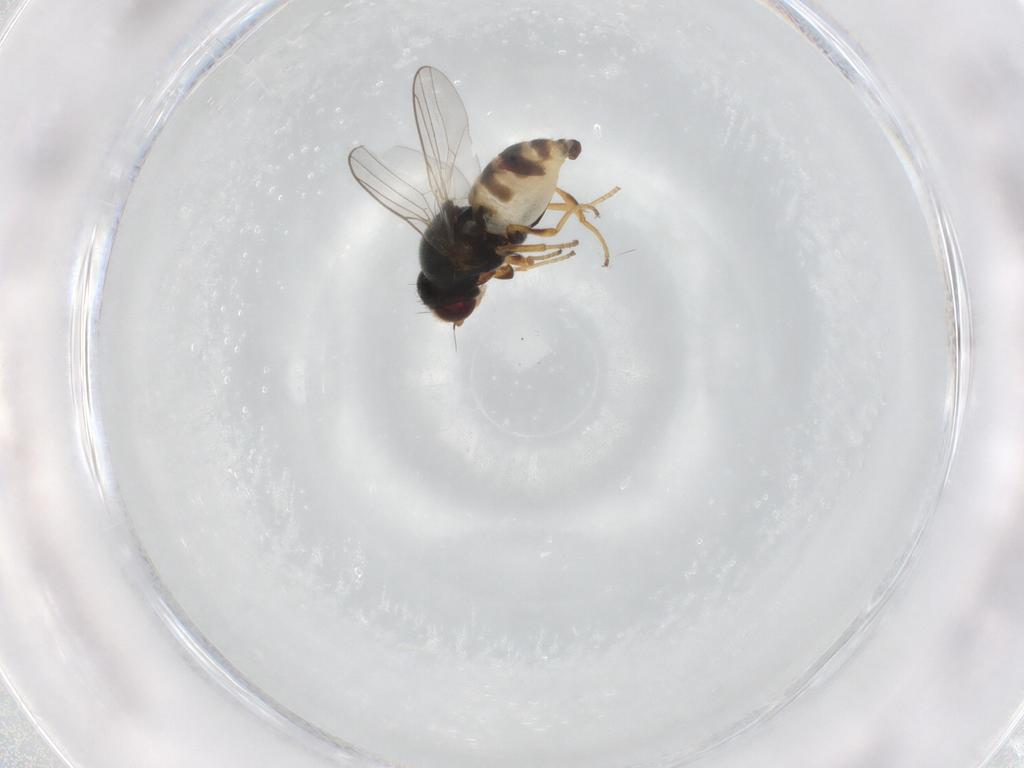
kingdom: Animalia
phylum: Arthropoda
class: Insecta
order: Diptera
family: Chloropidae
